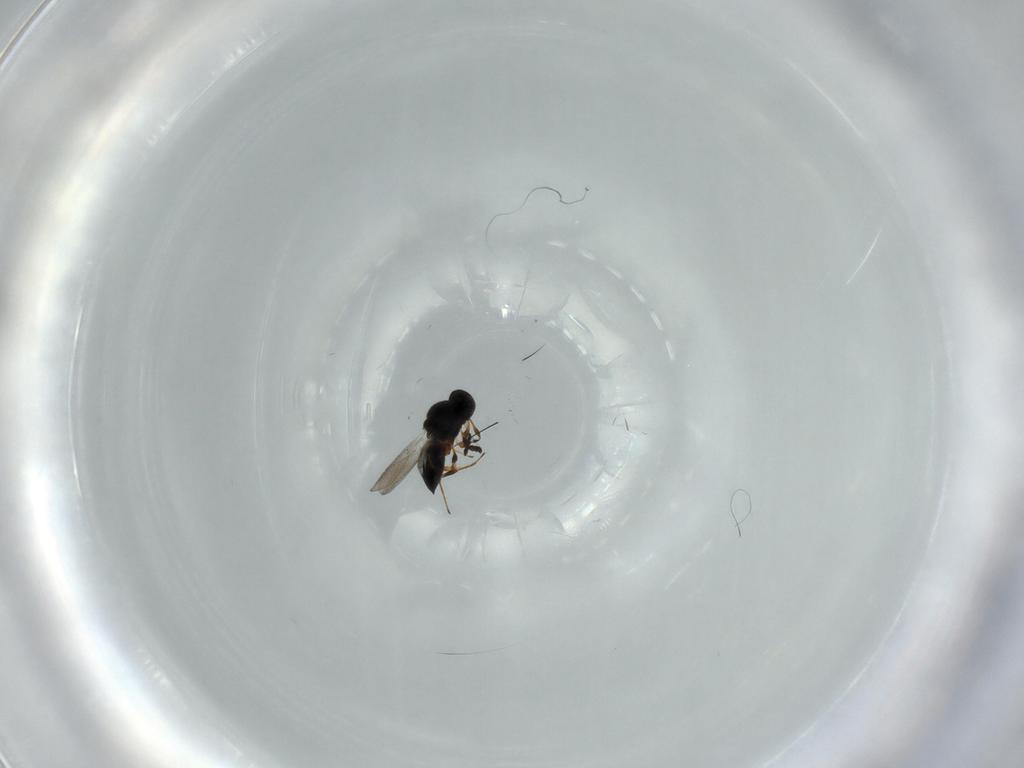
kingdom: Animalia
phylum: Arthropoda
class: Insecta
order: Hymenoptera
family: Platygastridae
